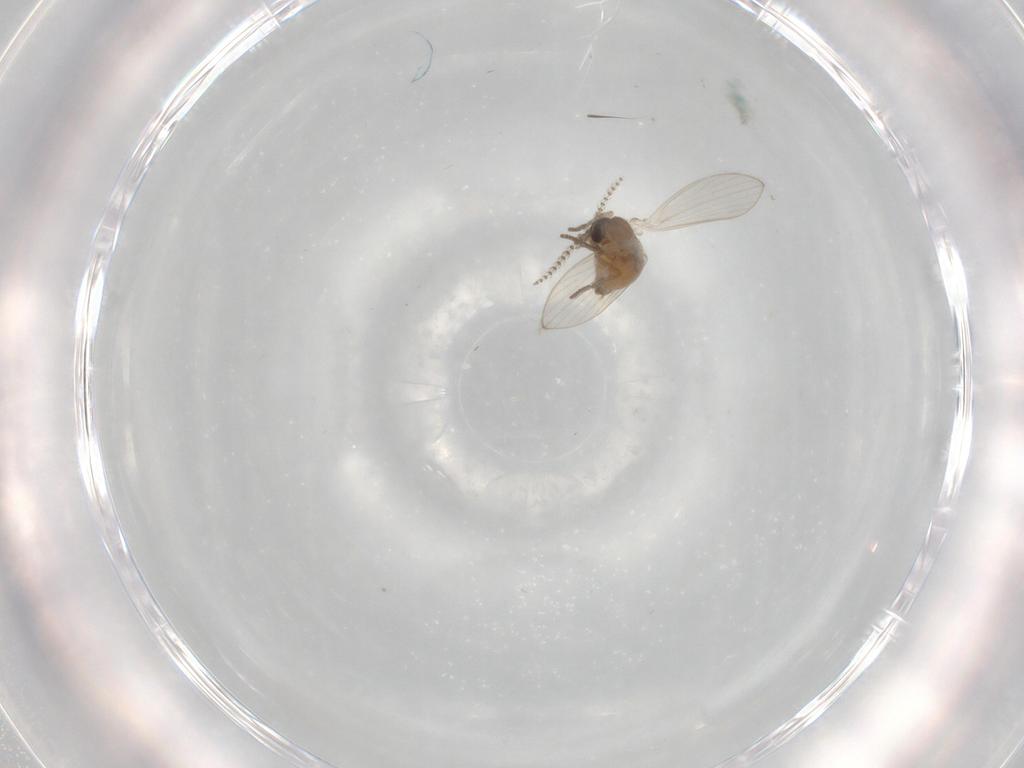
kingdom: Animalia
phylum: Arthropoda
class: Insecta
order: Diptera
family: Psychodidae
